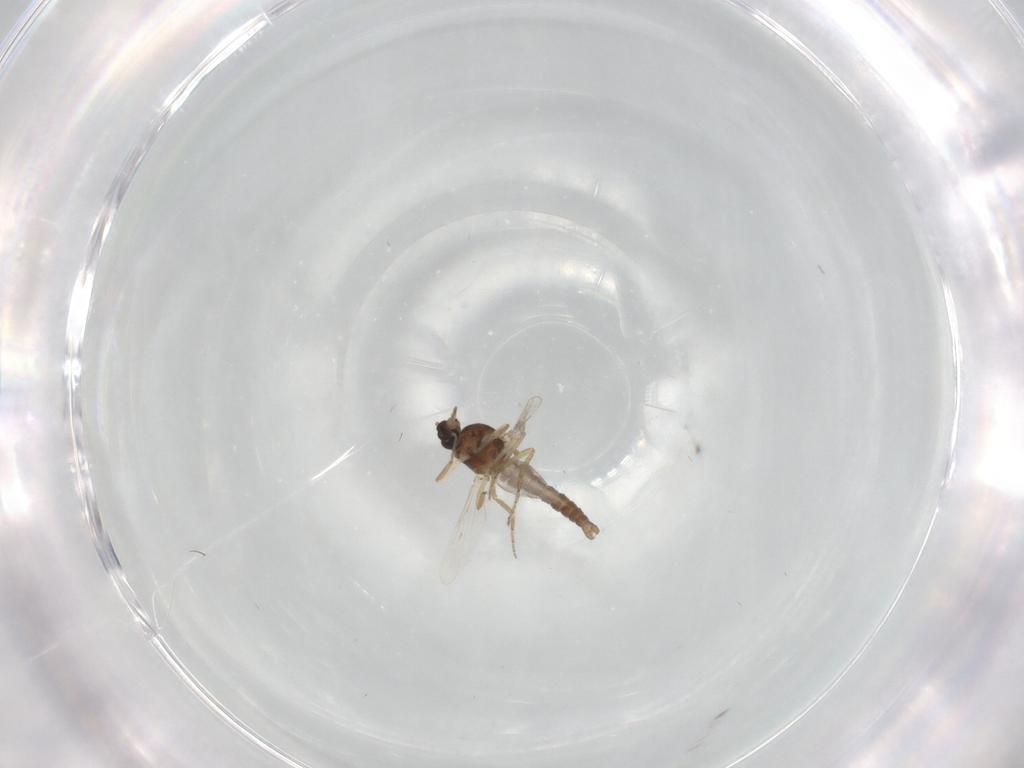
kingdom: Animalia
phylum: Arthropoda
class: Insecta
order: Diptera
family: Ceratopogonidae
